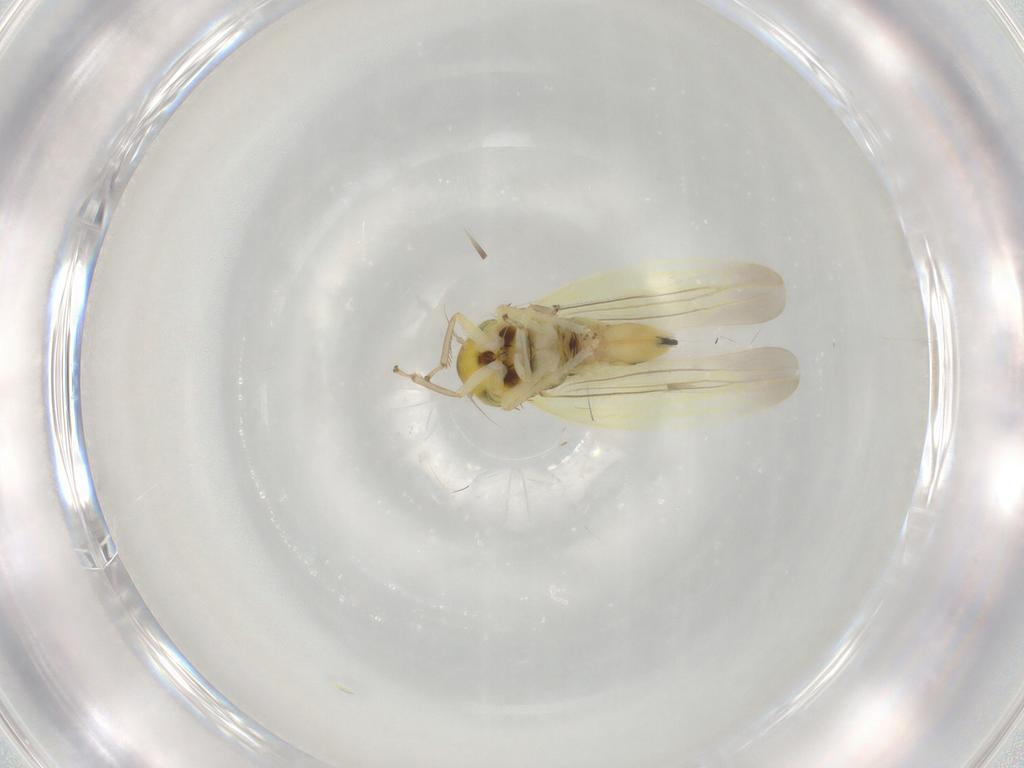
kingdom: Animalia
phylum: Arthropoda
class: Insecta
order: Hemiptera
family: Cicadellidae
